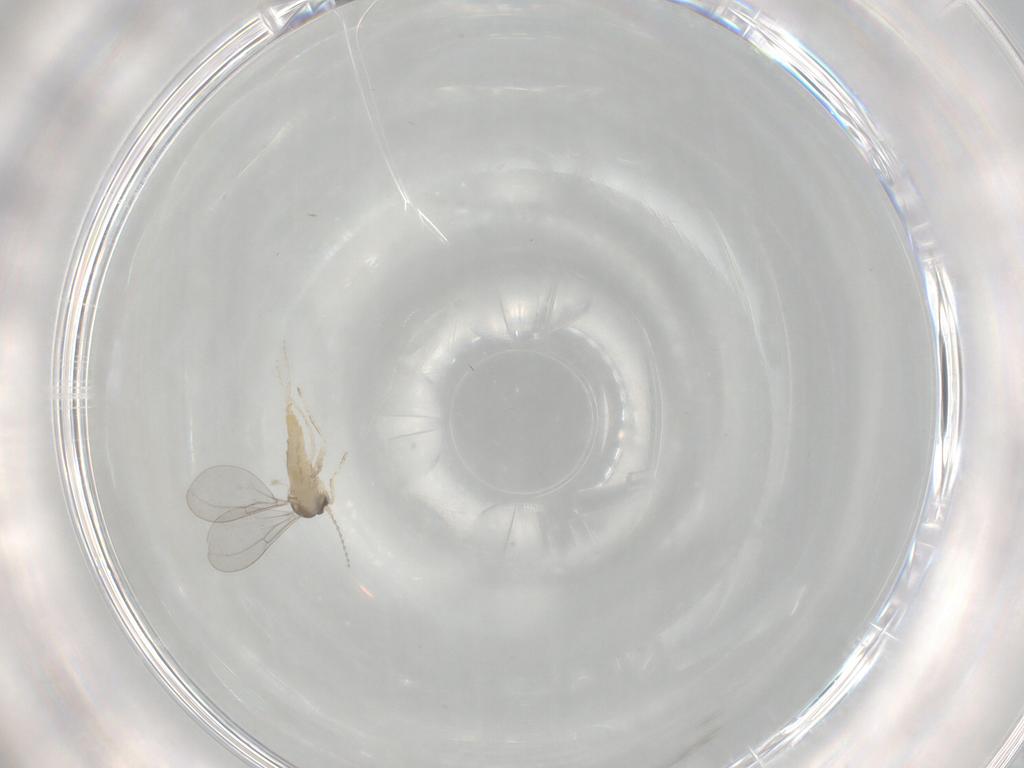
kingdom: Animalia
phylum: Arthropoda
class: Insecta
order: Diptera
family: Cecidomyiidae
